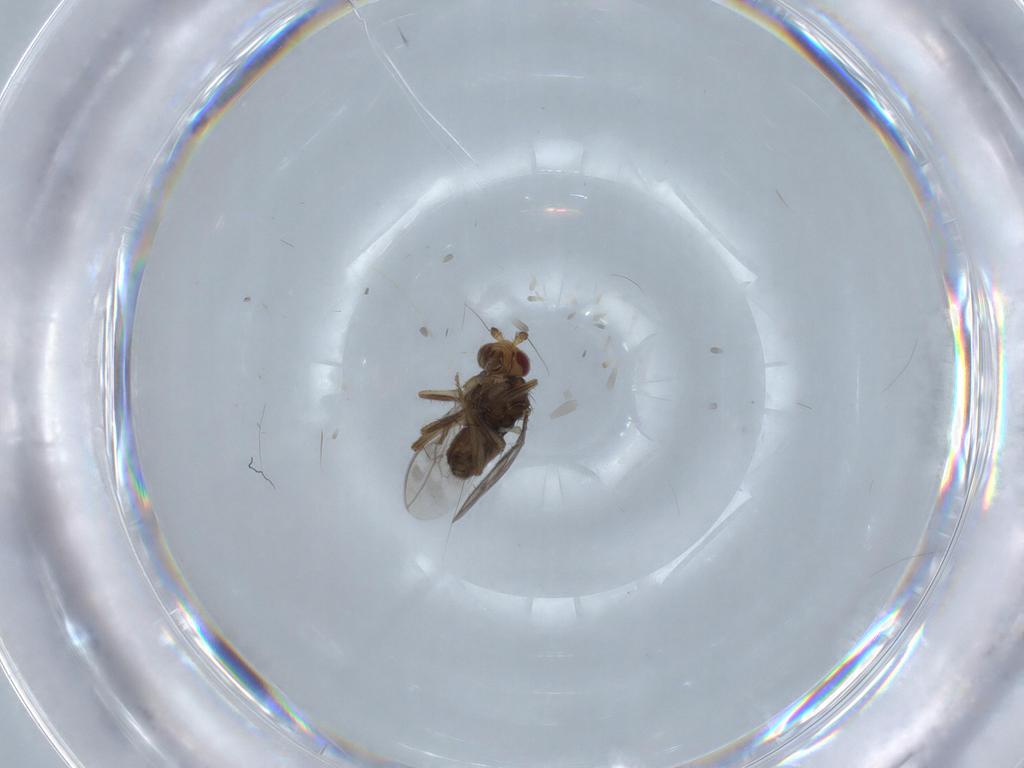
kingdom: Animalia
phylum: Arthropoda
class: Insecta
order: Diptera
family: Sphaeroceridae
